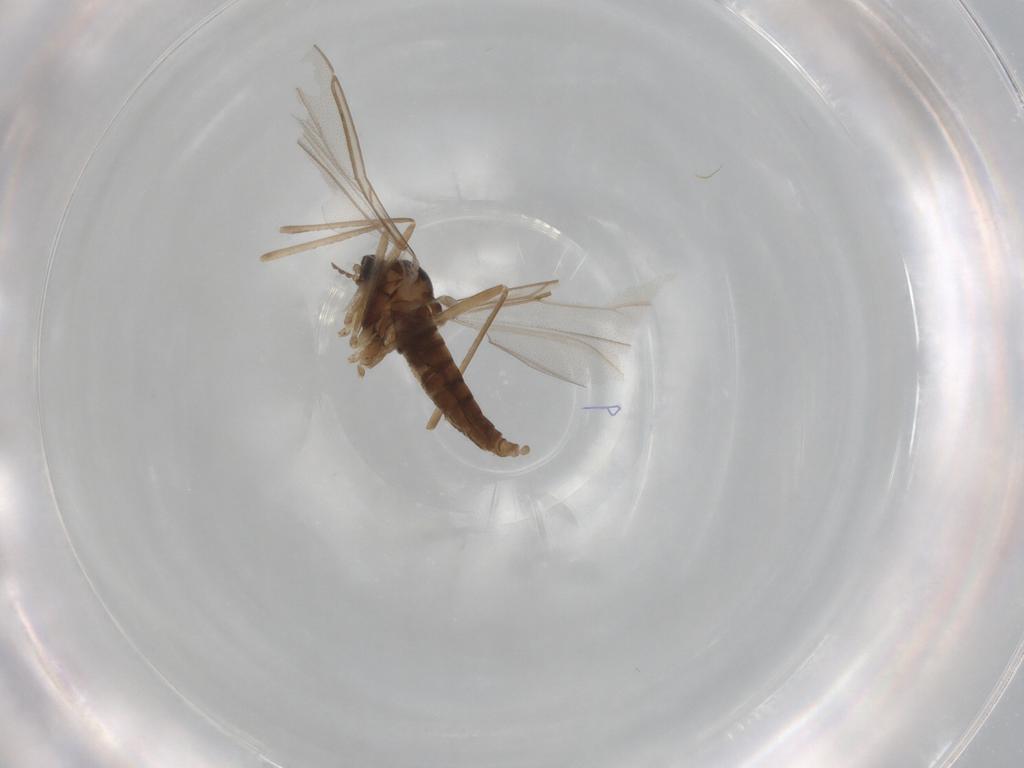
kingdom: Animalia
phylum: Arthropoda
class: Insecta
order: Diptera
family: Cecidomyiidae
